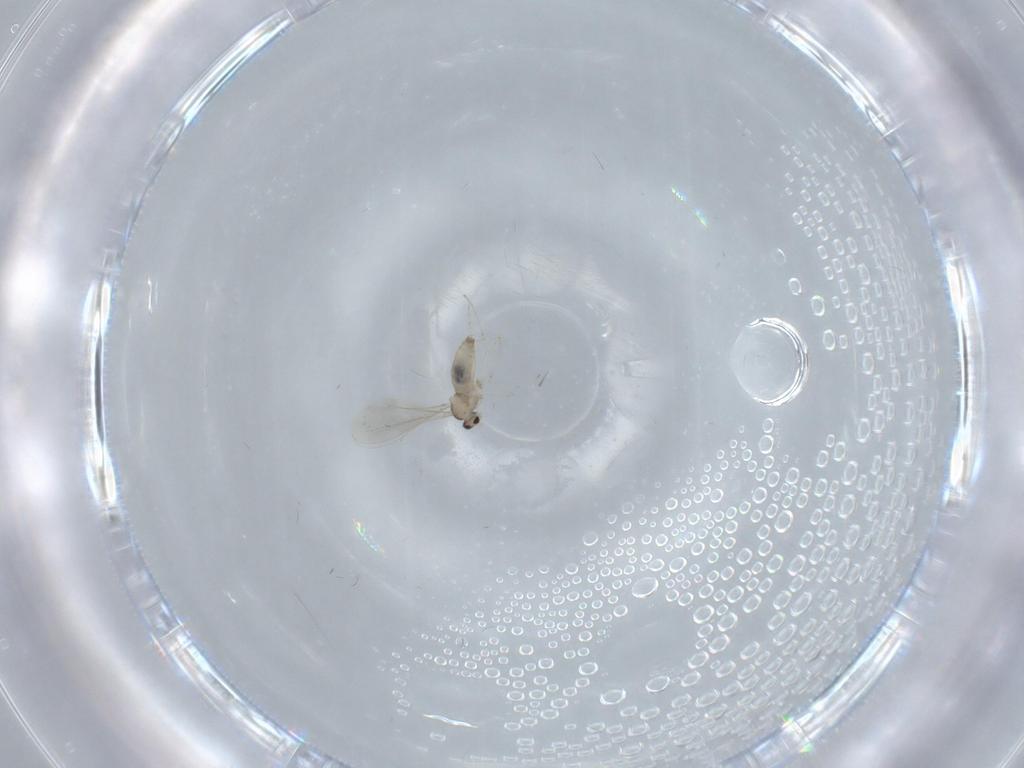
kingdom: Animalia
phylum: Arthropoda
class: Insecta
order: Diptera
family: Cecidomyiidae
